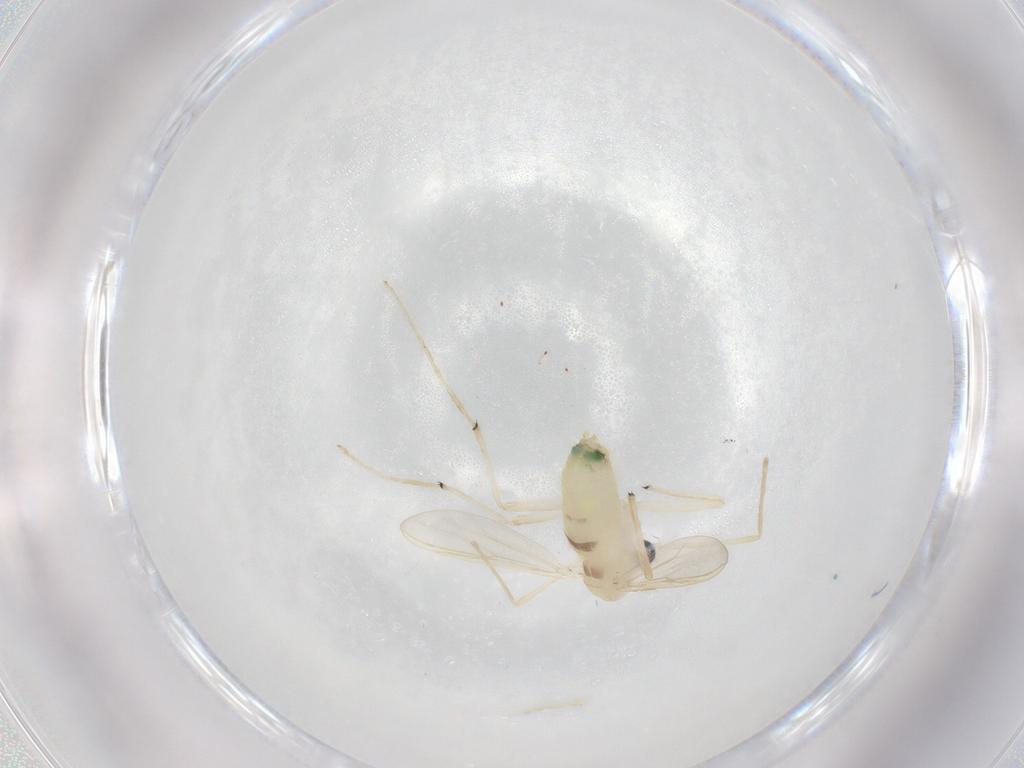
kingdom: Animalia
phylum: Arthropoda
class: Insecta
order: Diptera
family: Chironomidae
